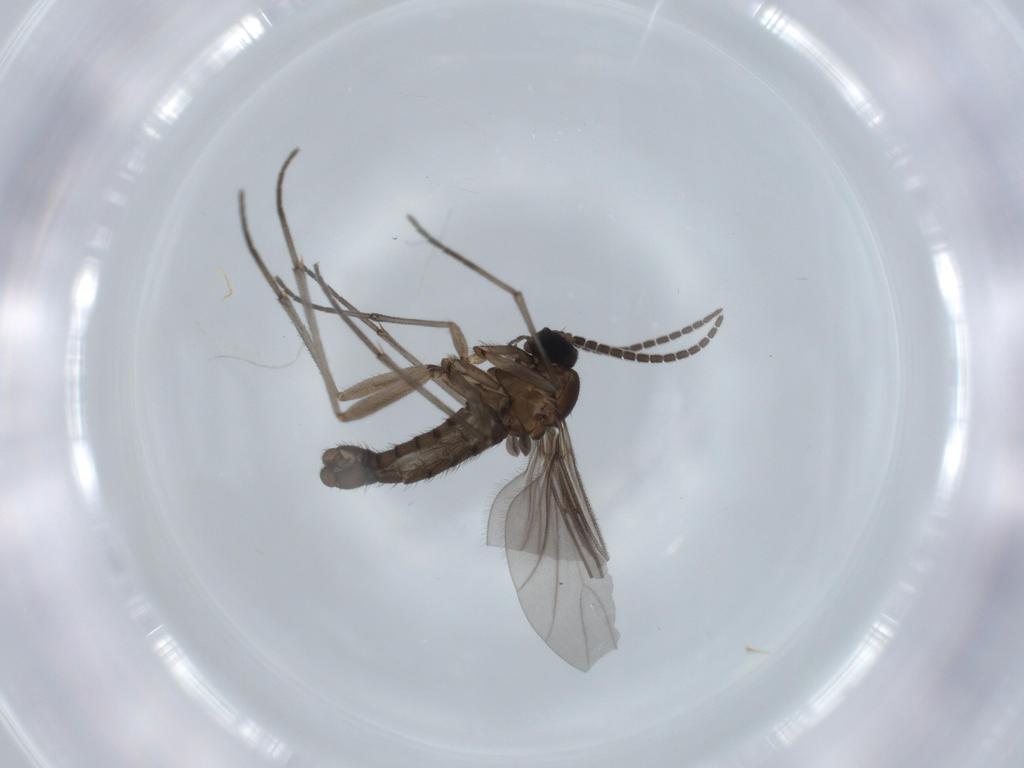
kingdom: Animalia
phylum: Arthropoda
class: Insecta
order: Diptera
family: Sciaridae
